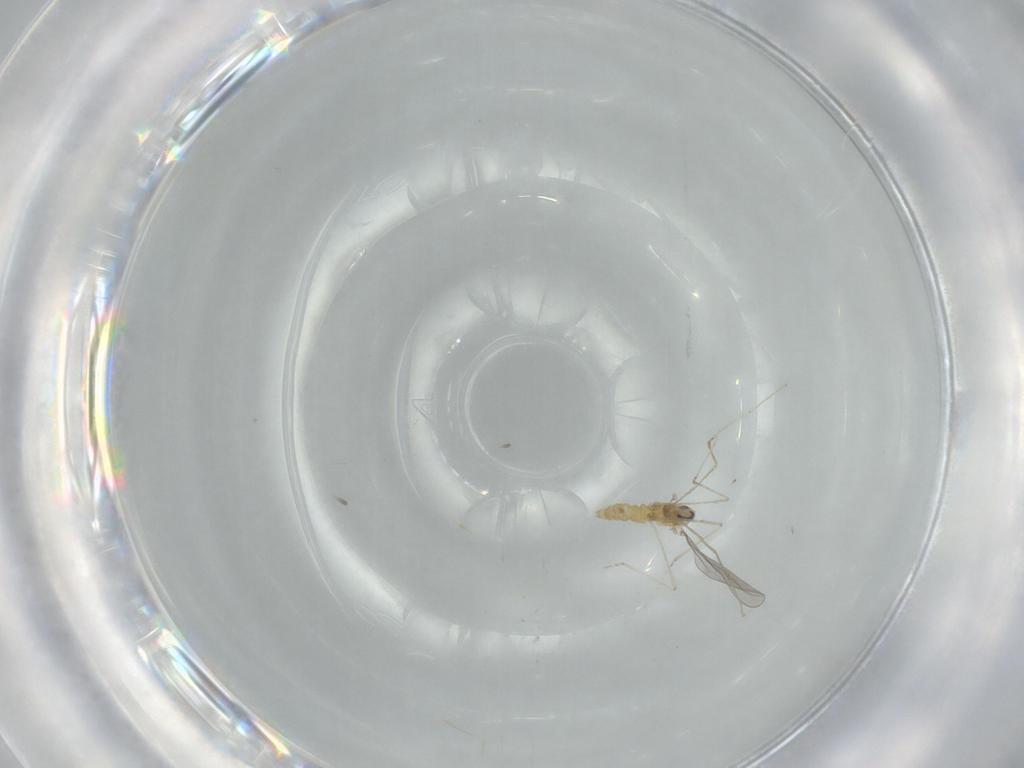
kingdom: Animalia
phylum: Arthropoda
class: Insecta
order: Diptera
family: Cecidomyiidae
